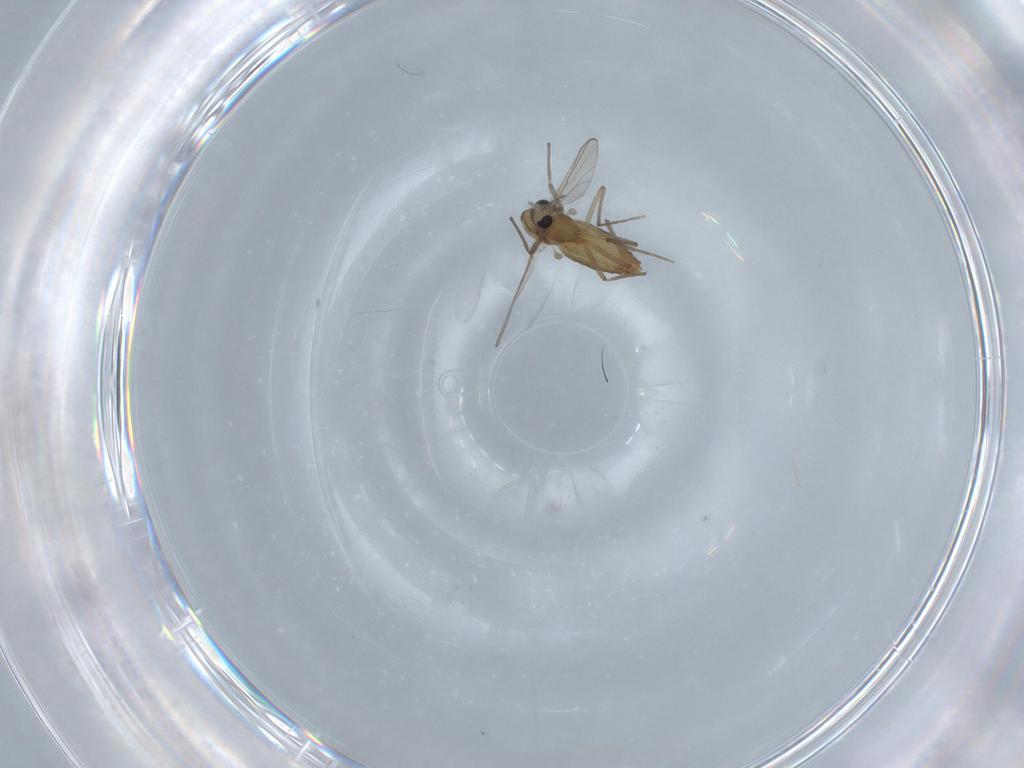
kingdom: Animalia
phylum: Arthropoda
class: Insecta
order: Diptera
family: Chironomidae
